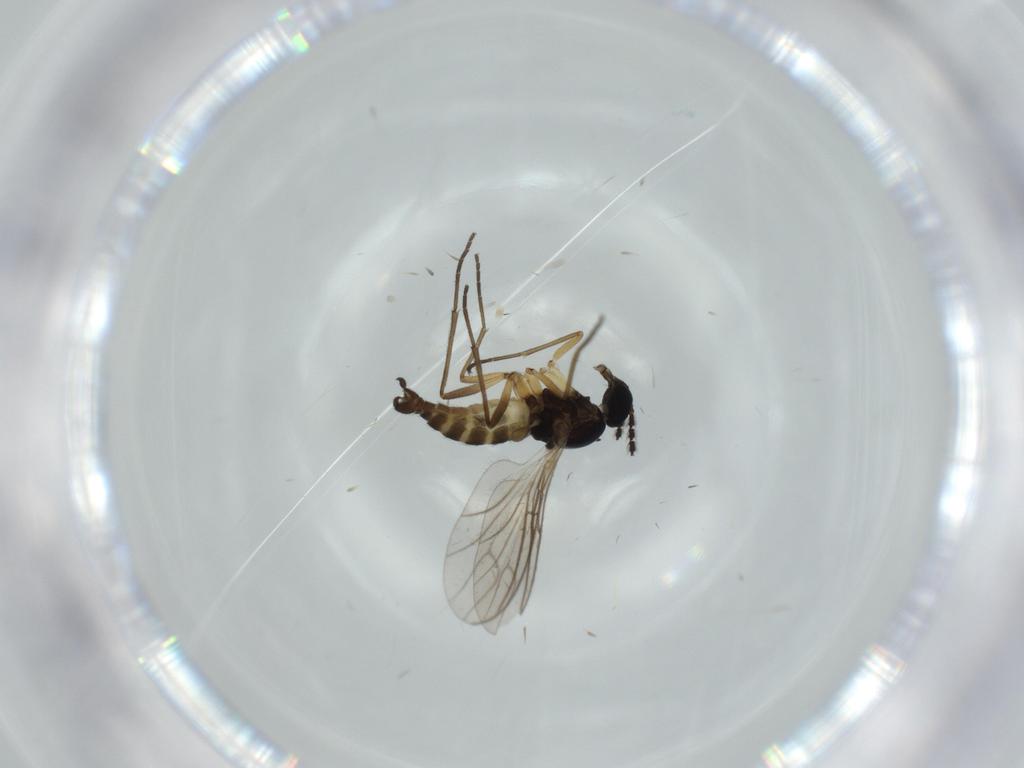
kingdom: Animalia
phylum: Arthropoda
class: Insecta
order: Diptera
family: Sciaridae
